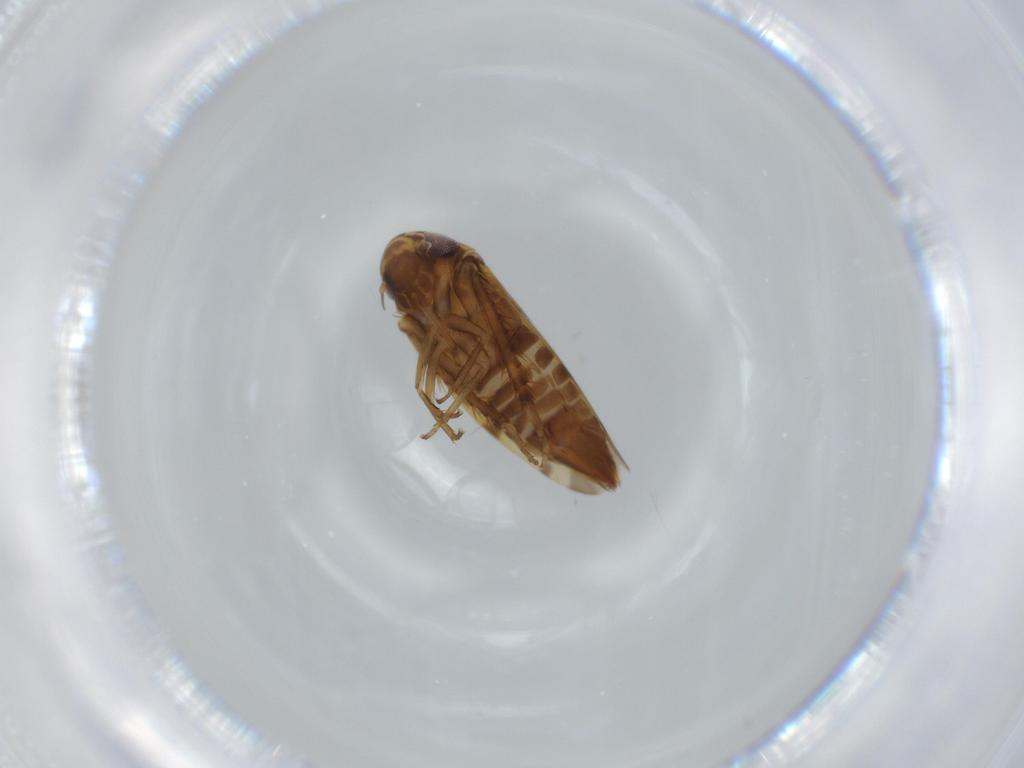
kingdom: Animalia
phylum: Arthropoda
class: Insecta
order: Hemiptera
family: Cicadellidae
